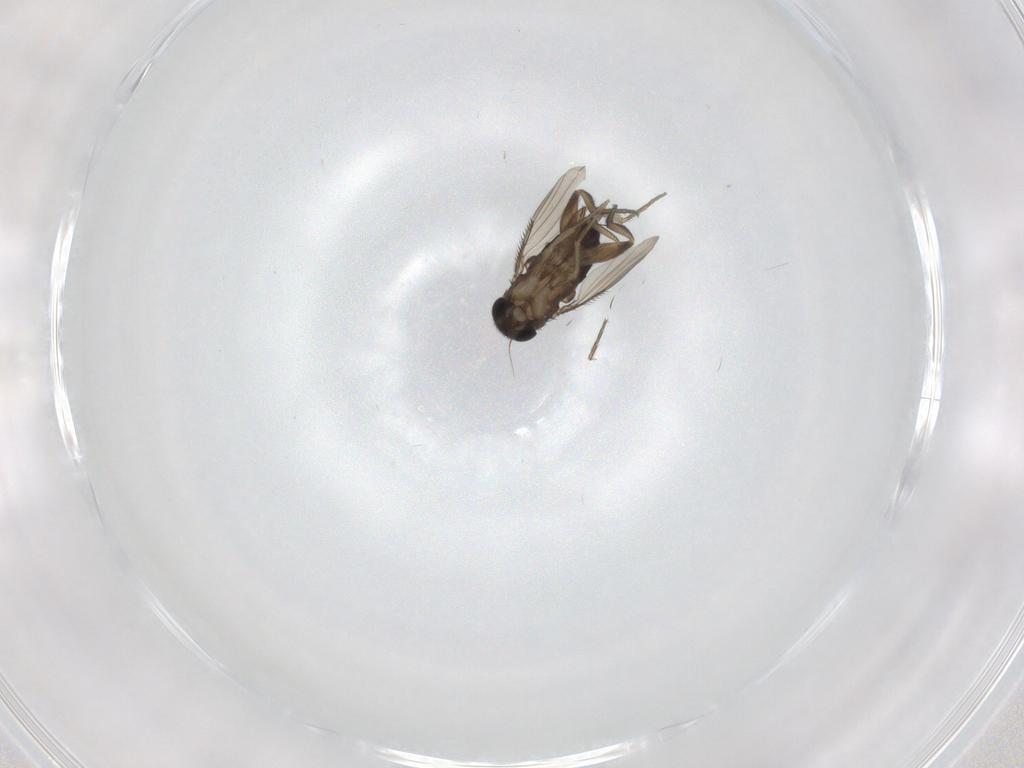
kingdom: Animalia
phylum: Arthropoda
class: Insecta
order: Diptera
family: Phoridae
